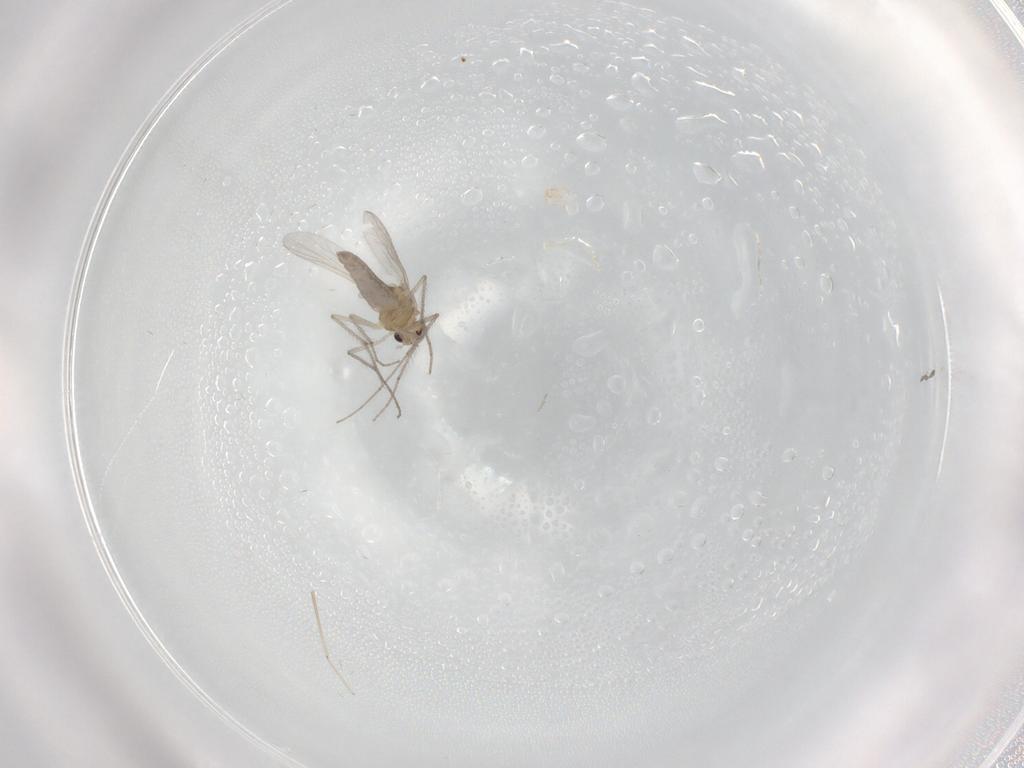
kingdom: Animalia
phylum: Arthropoda
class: Insecta
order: Diptera
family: Chironomidae
